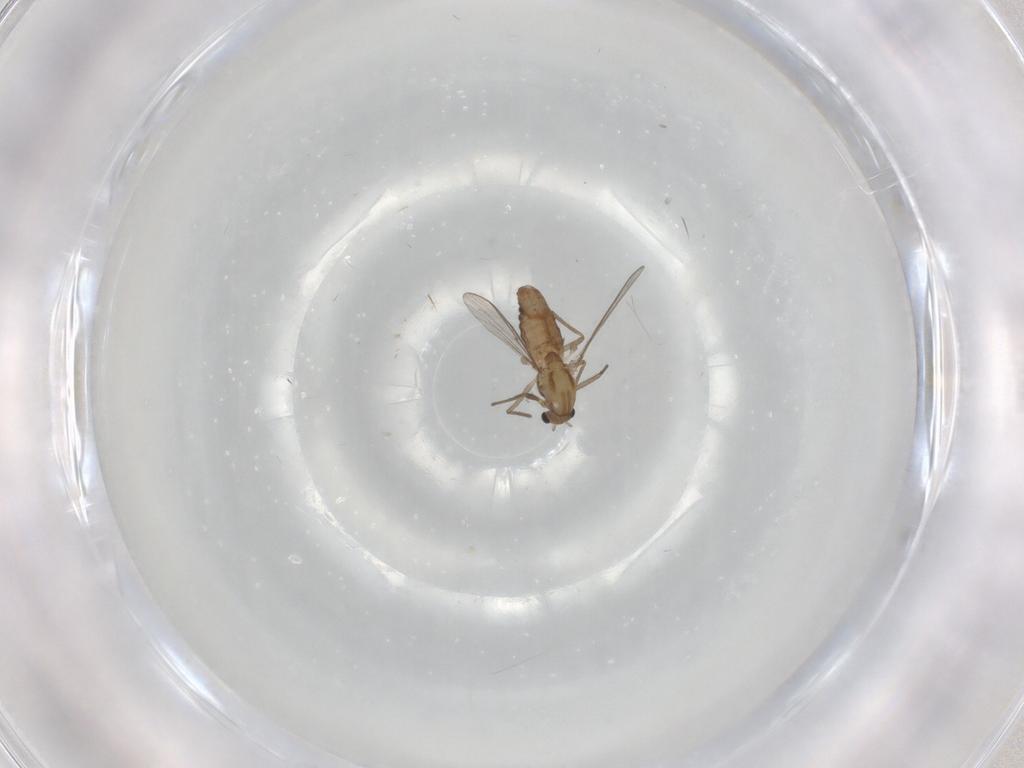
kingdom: Animalia
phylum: Arthropoda
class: Insecta
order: Diptera
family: Chironomidae
